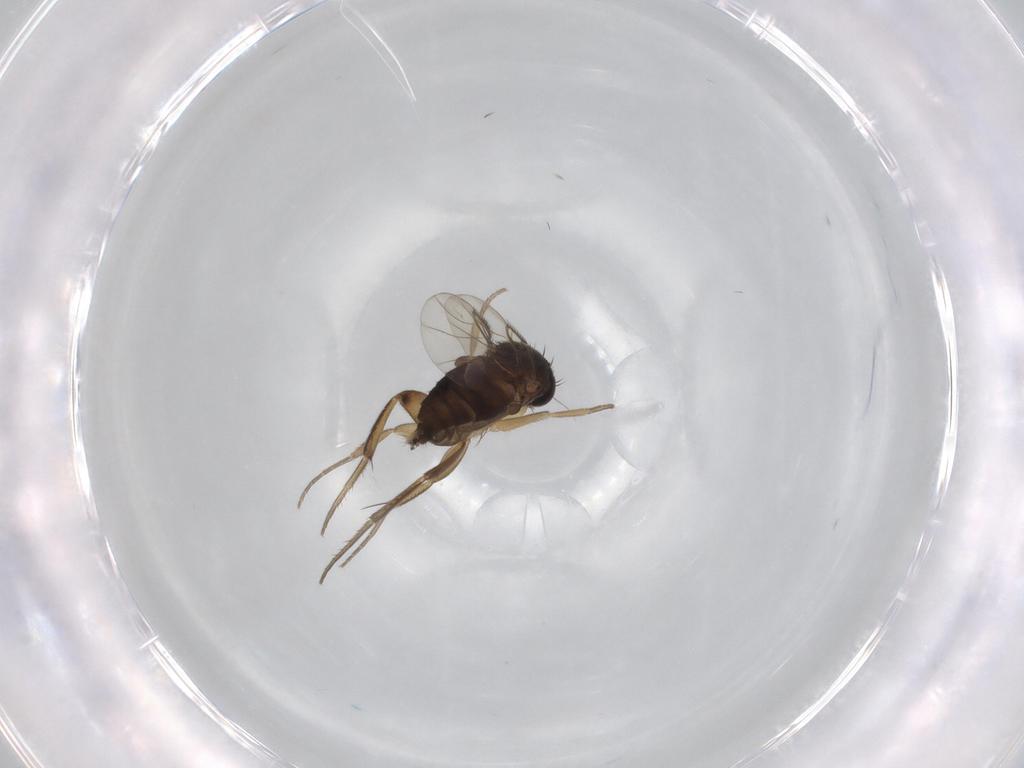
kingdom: Animalia
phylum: Arthropoda
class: Insecta
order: Diptera
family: Phoridae
